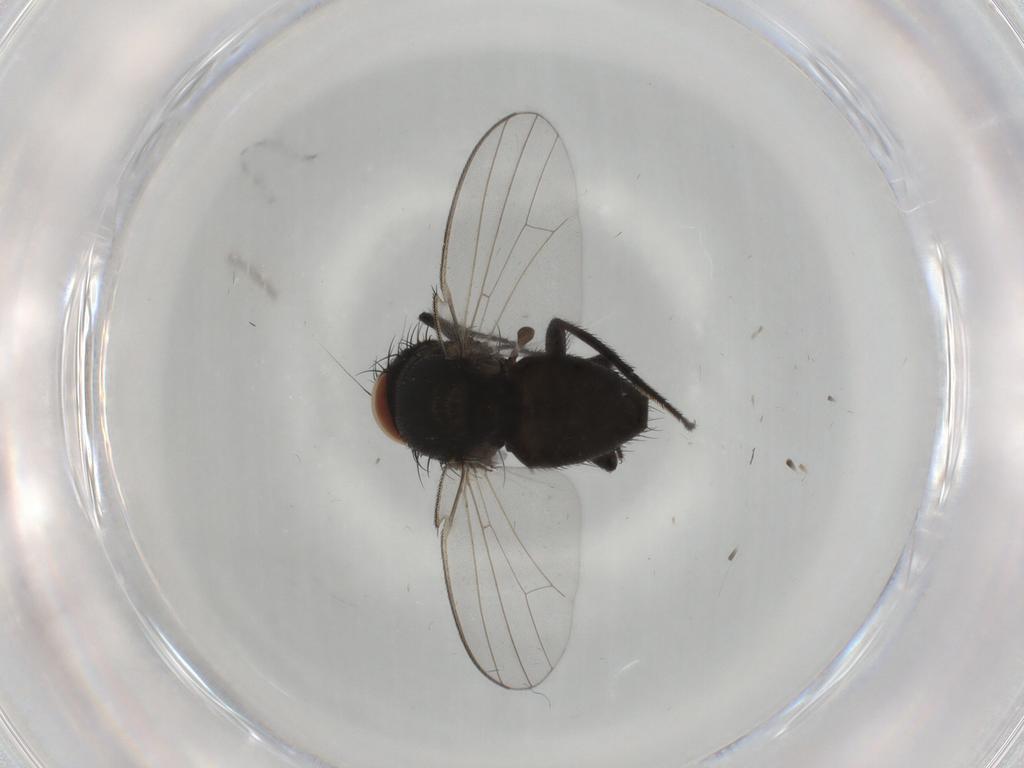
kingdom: Animalia
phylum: Arthropoda
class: Insecta
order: Diptera
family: Milichiidae
